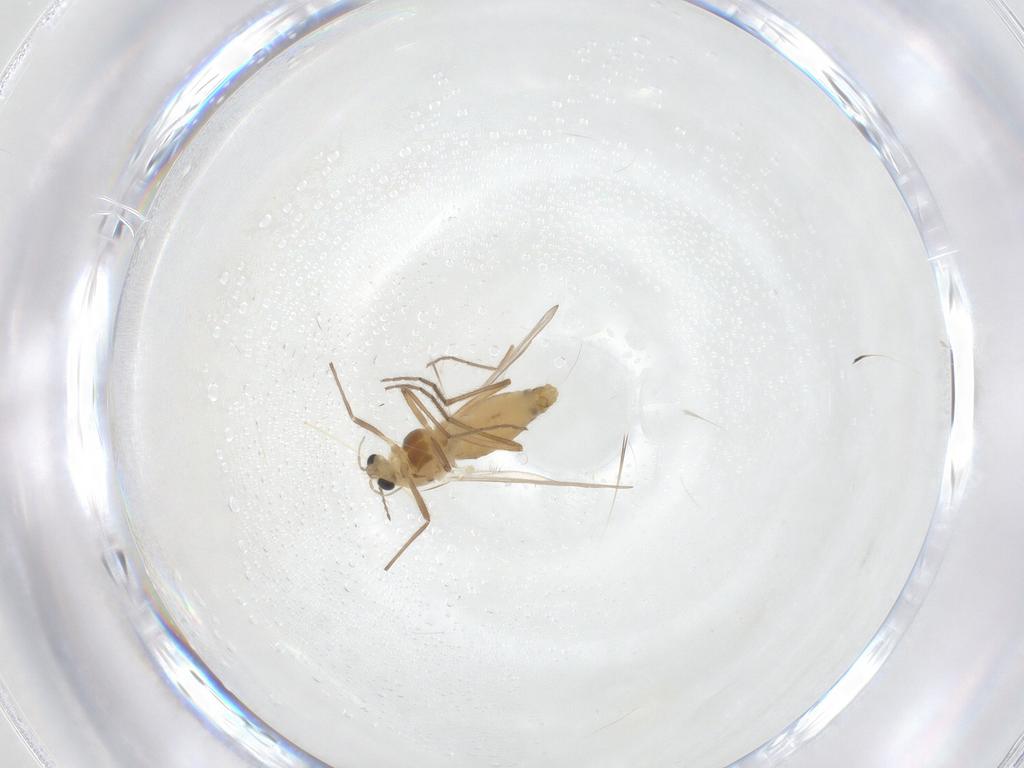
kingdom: Animalia
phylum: Arthropoda
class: Insecta
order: Diptera
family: Chironomidae
